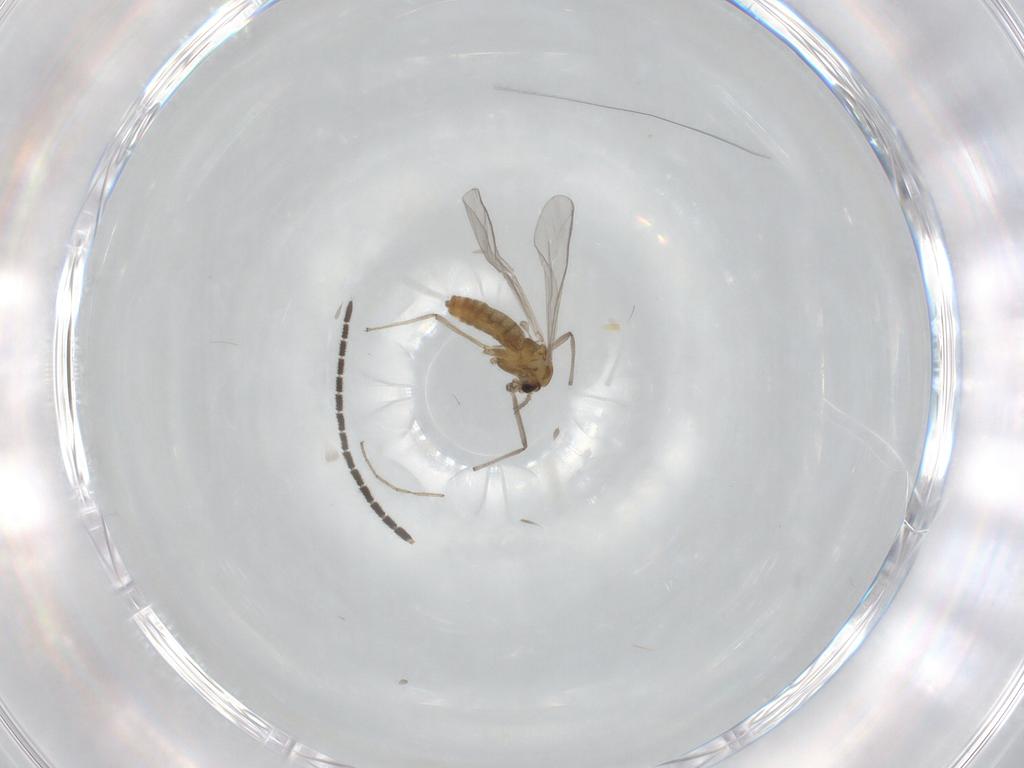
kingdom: Animalia
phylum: Arthropoda
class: Insecta
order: Diptera
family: Chironomidae
